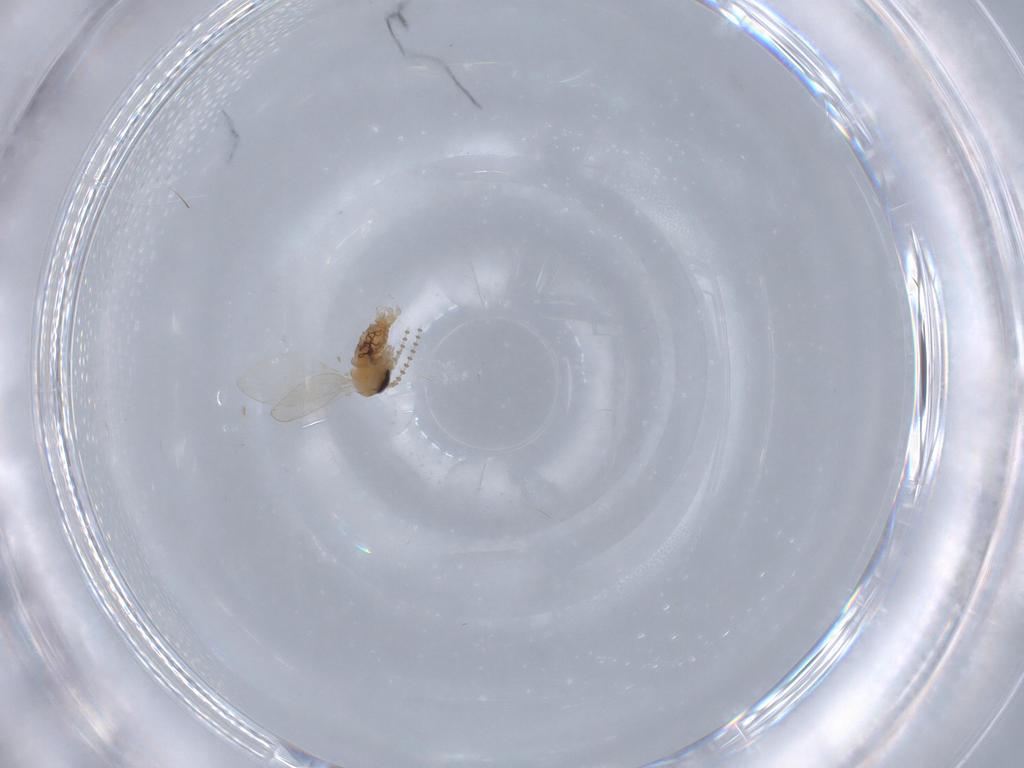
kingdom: Animalia
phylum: Arthropoda
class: Insecta
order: Diptera
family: Psychodidae
